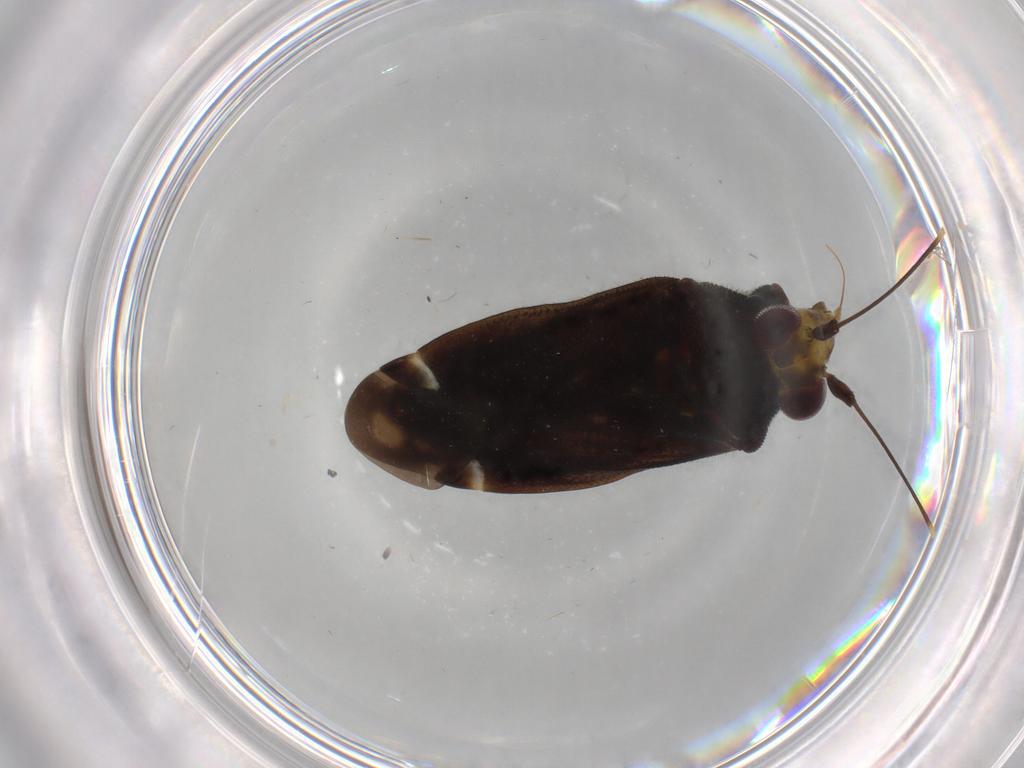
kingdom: Animalia
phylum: Arthropoda
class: Insecta
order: Hemiptera
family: Miridae
